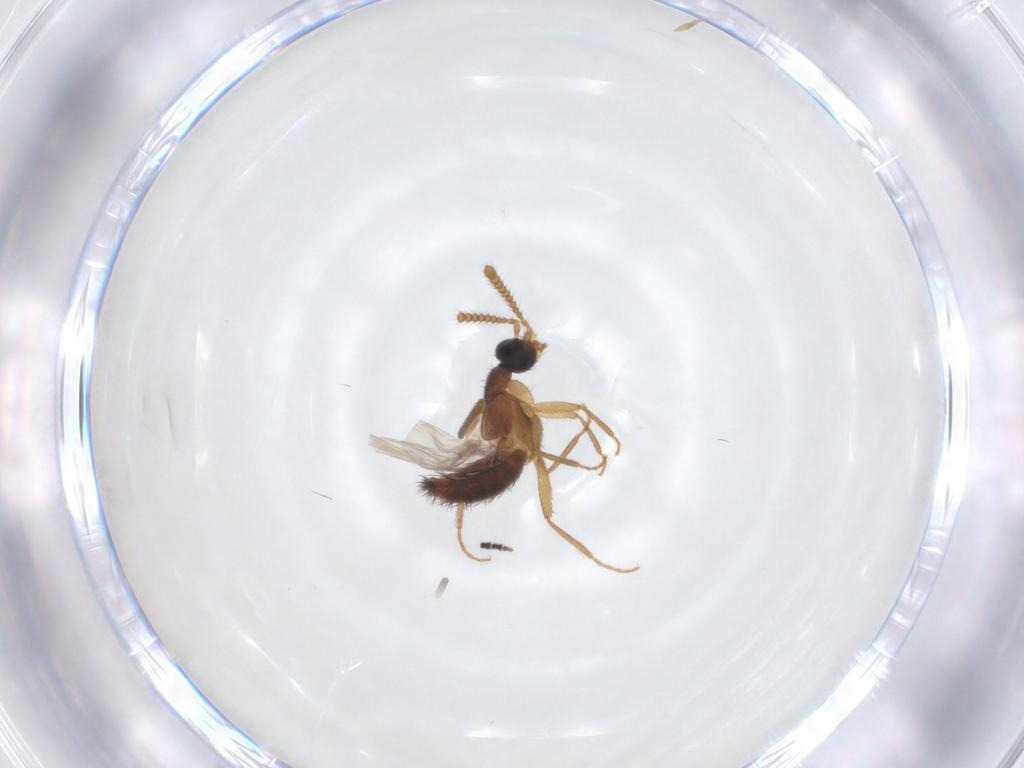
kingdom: Animalia
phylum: Arthropoda
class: Insecta
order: Coleoptera
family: Staphylinidae
